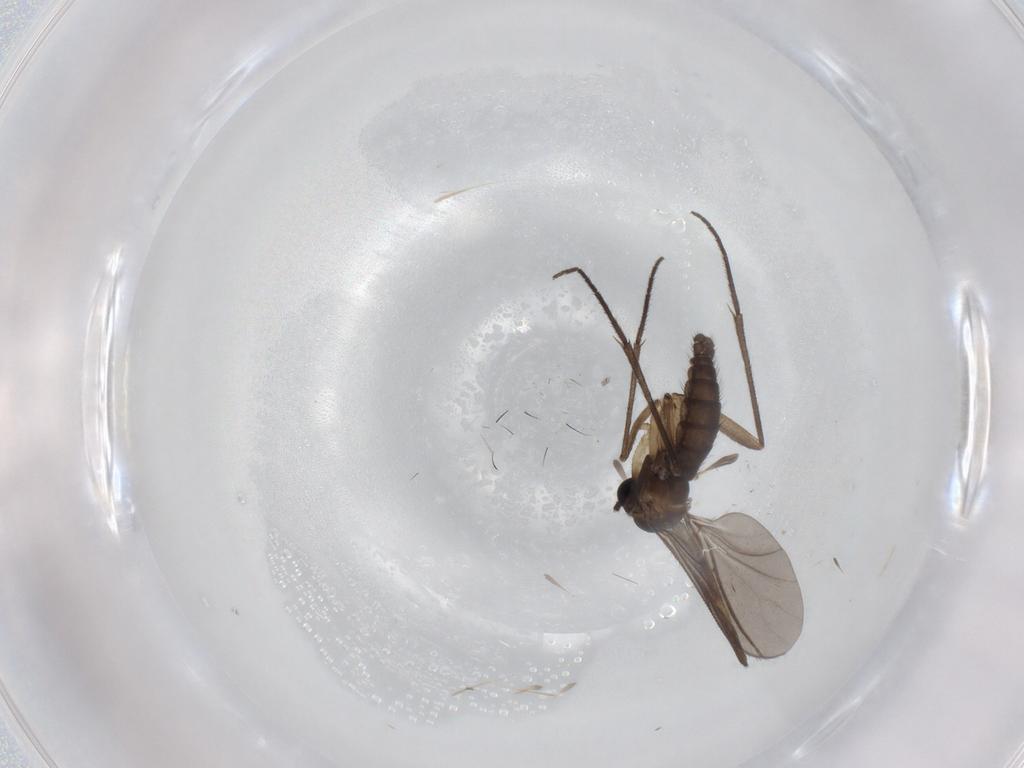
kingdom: Animalia
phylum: Arthropoda
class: Insecta
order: Diptera
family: Sciaridae
